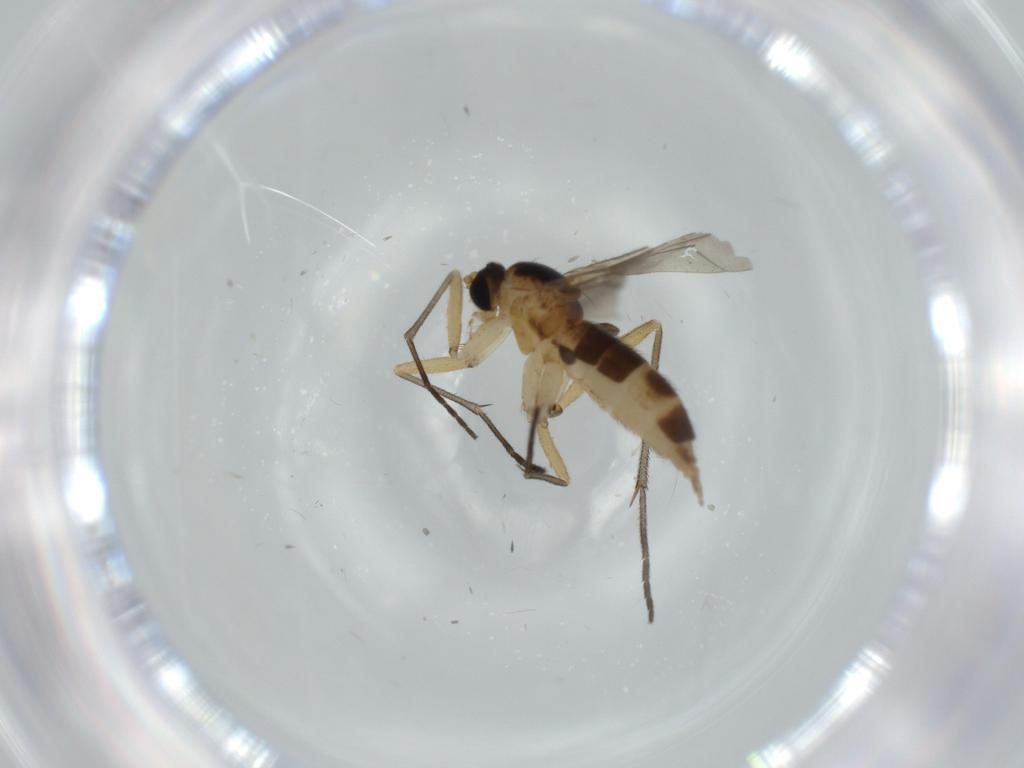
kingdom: Animalia
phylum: Arthropoda
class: Insecta
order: Diptera
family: Sciaridae
